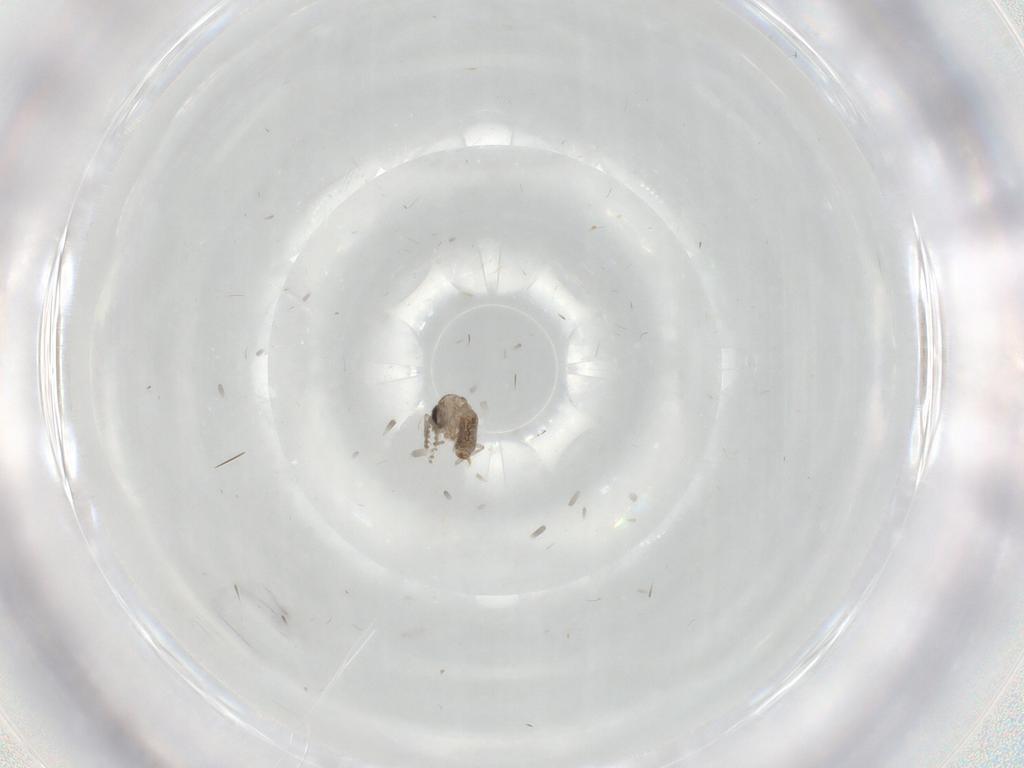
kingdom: Animalia
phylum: Arthropoda
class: Insecta
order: Diptera
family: Psychodidae
